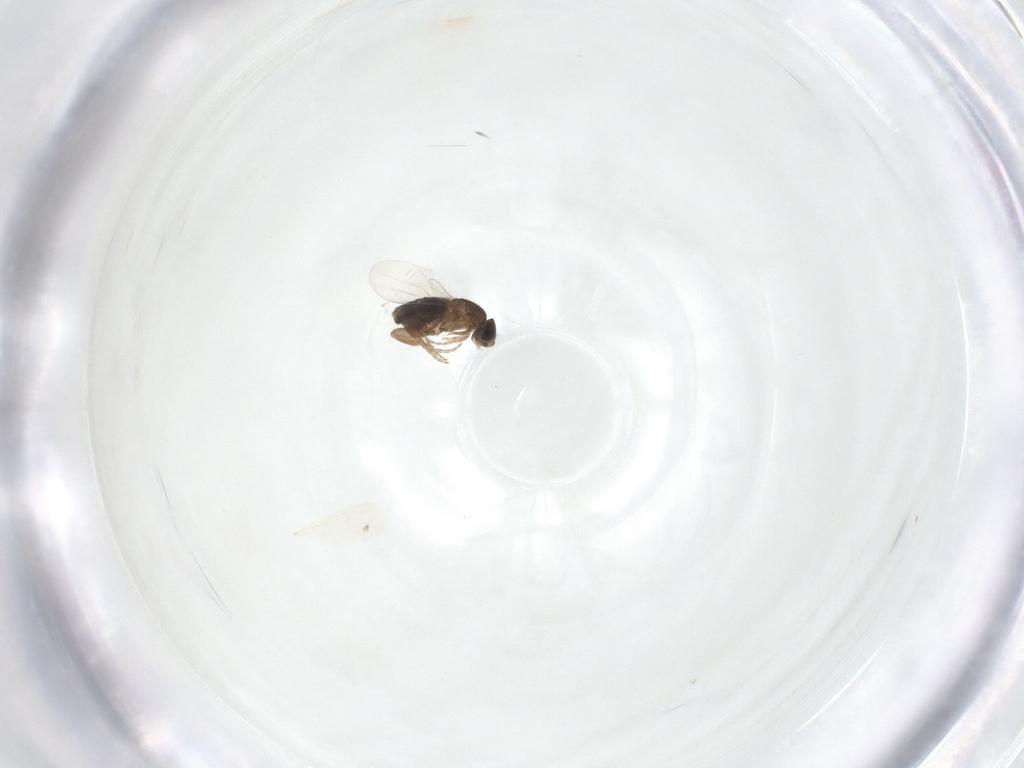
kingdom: Animalia
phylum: Arthropoda
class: Insecta
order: Diptera
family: Phoridae
